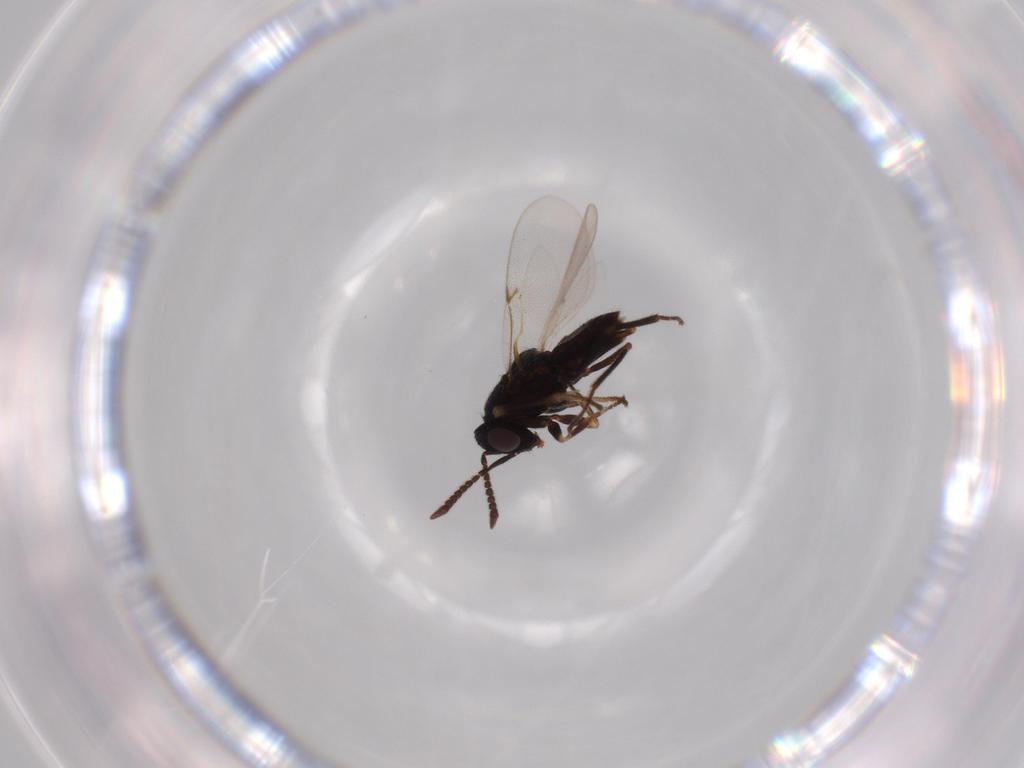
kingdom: Animalia
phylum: Arthropoda
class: Insecta
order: Hymenoptera
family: Encyrtidae
